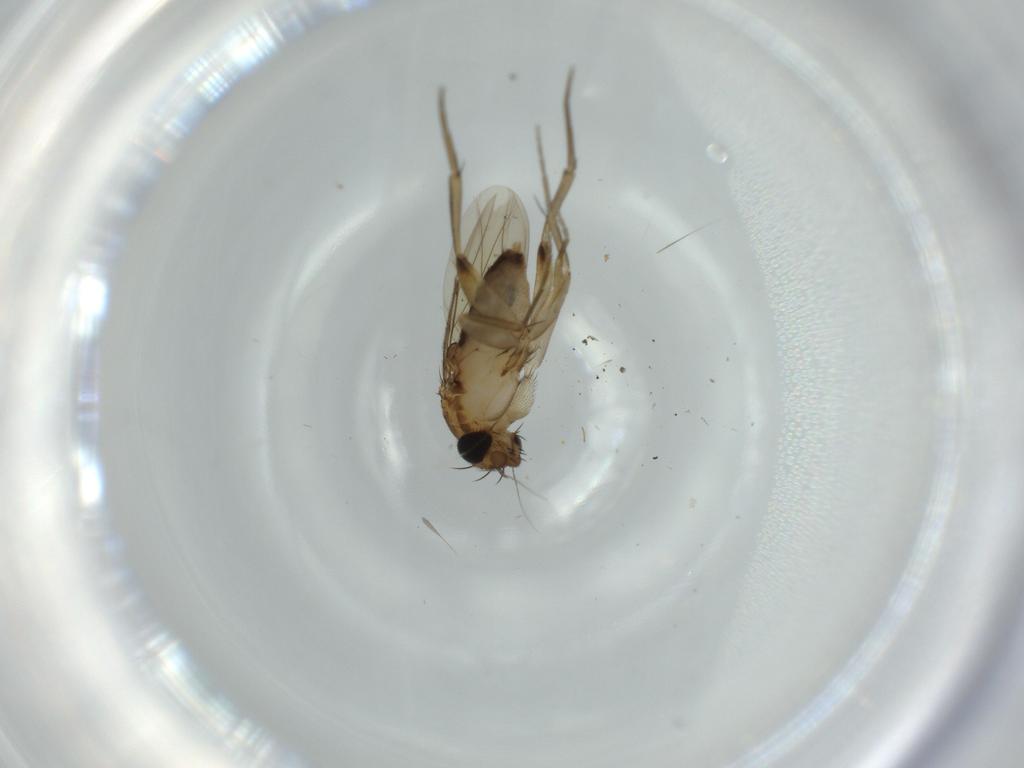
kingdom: Animalia
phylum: Arthropoda
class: Insecta
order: Diptera
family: Phoridae
